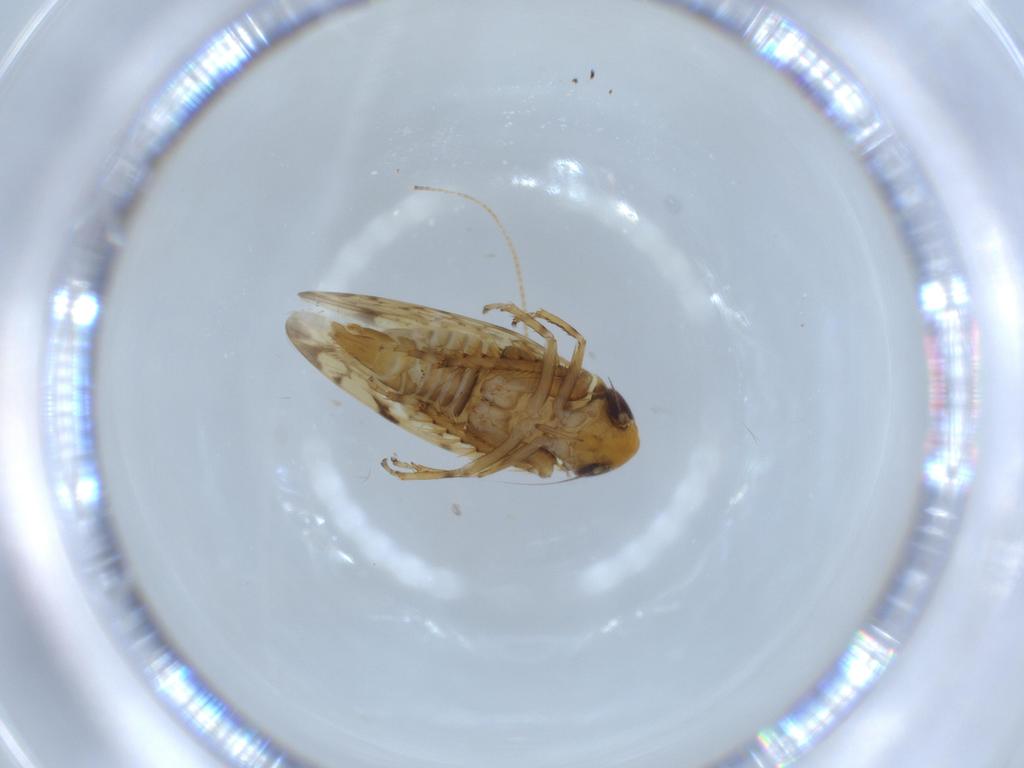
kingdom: Animalia
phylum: Arthropoda
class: Insecta
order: Hemiptera
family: Cicadellidae
